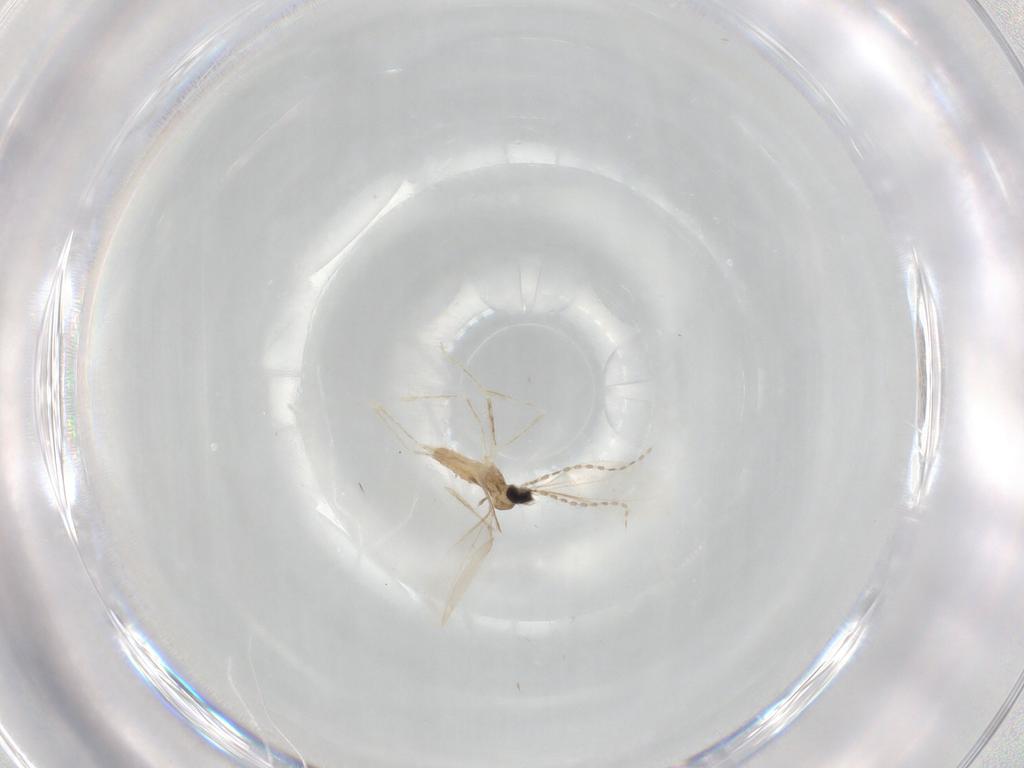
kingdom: Animalia
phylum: Arthropoda
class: Insecta
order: Diptera
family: Cecidomyiidae
